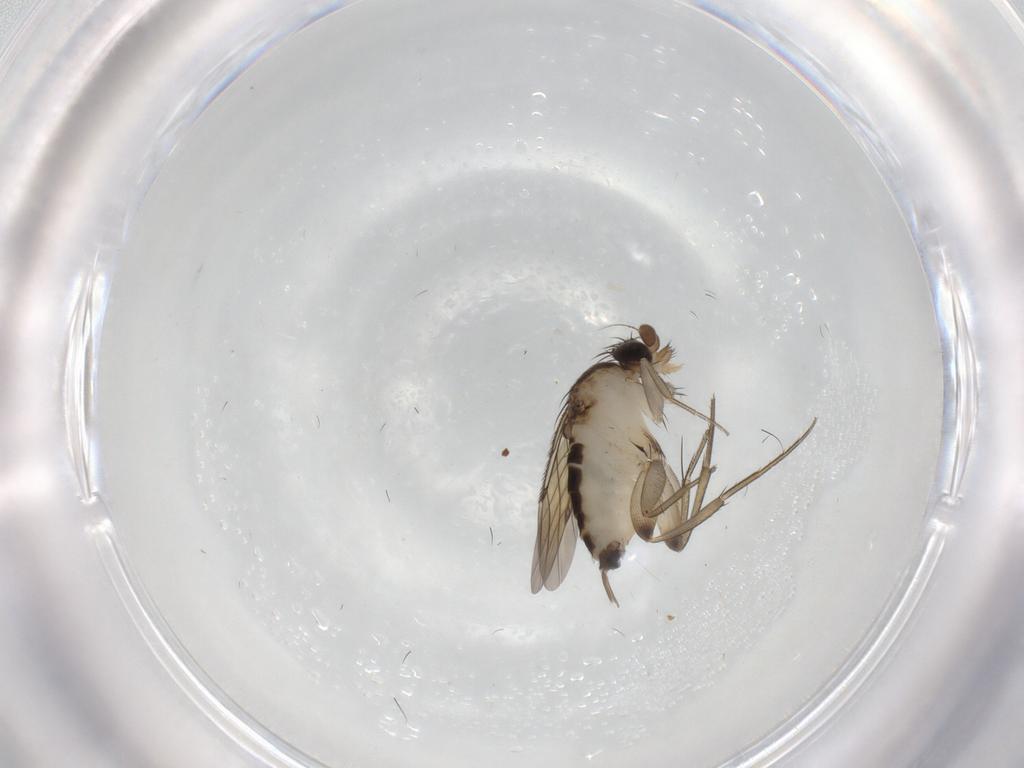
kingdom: Animalia
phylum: Arthropoda
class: Insecta
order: Diptera
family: Phoridae
